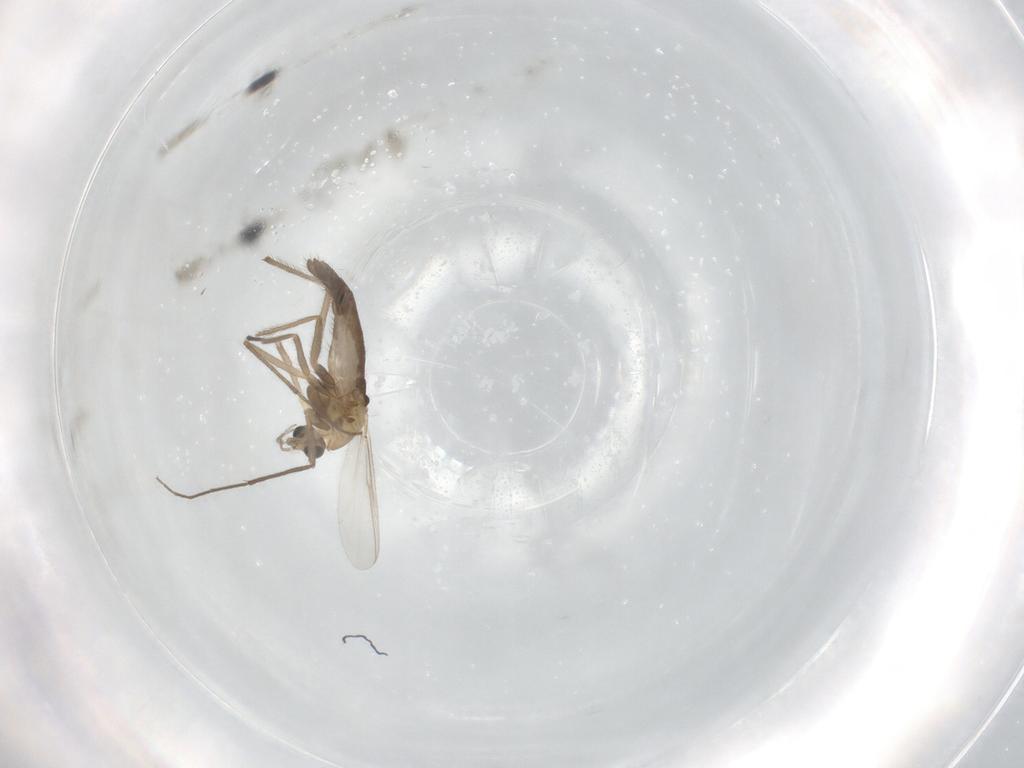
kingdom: Animalia
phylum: Arthropoda
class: Insecta
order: Diptera
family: Chironomidae
